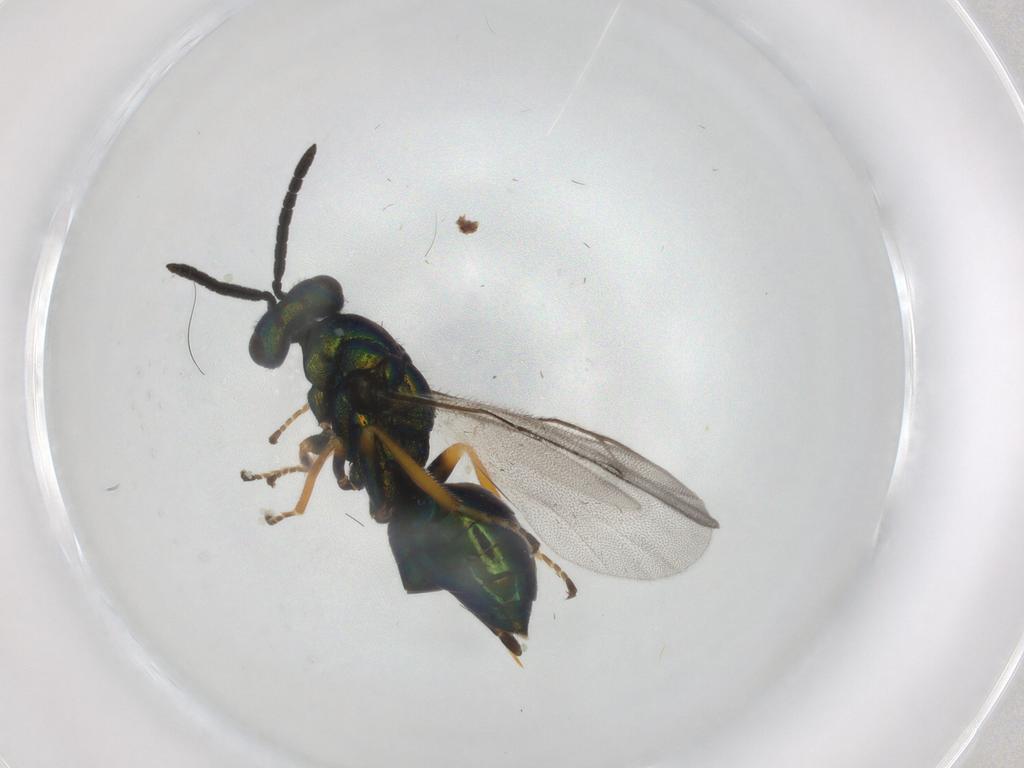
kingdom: Animalia
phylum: Arthropoda
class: Insecta
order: Hymenoptera
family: Pteromalidae
